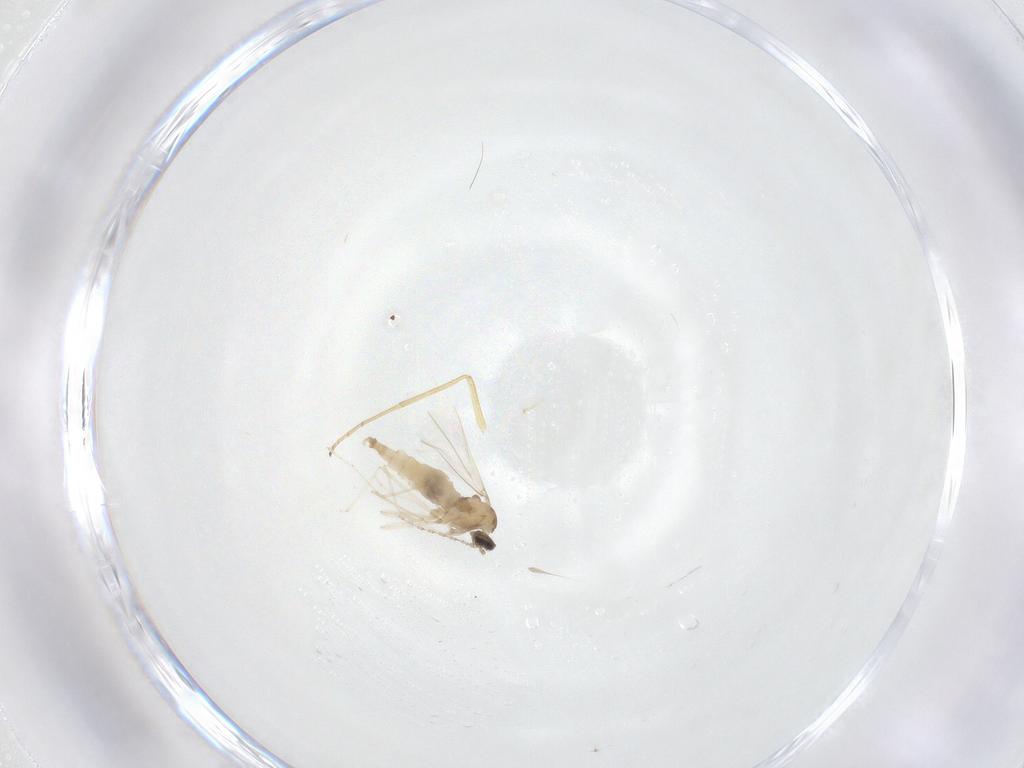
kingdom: Animalia
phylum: Arthropoda
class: Insecta
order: Diptera
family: Cecidomyiidae
